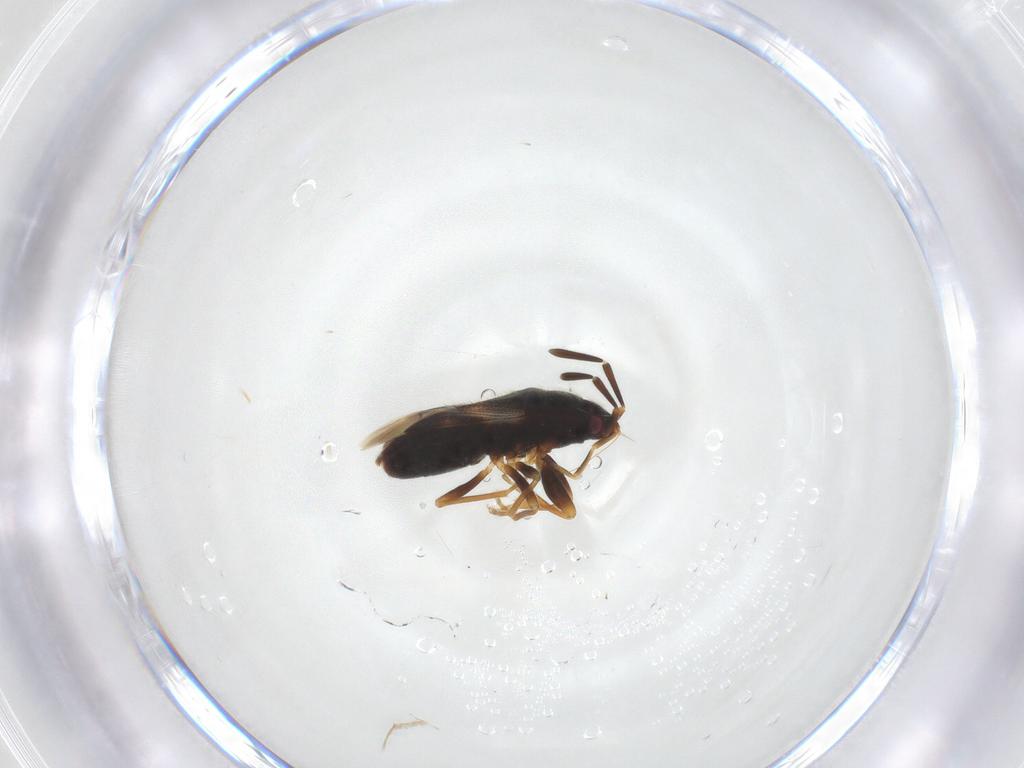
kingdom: Animalia
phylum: Arthropoda
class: Insecta
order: Hemiptera
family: Rhyparochromidae
